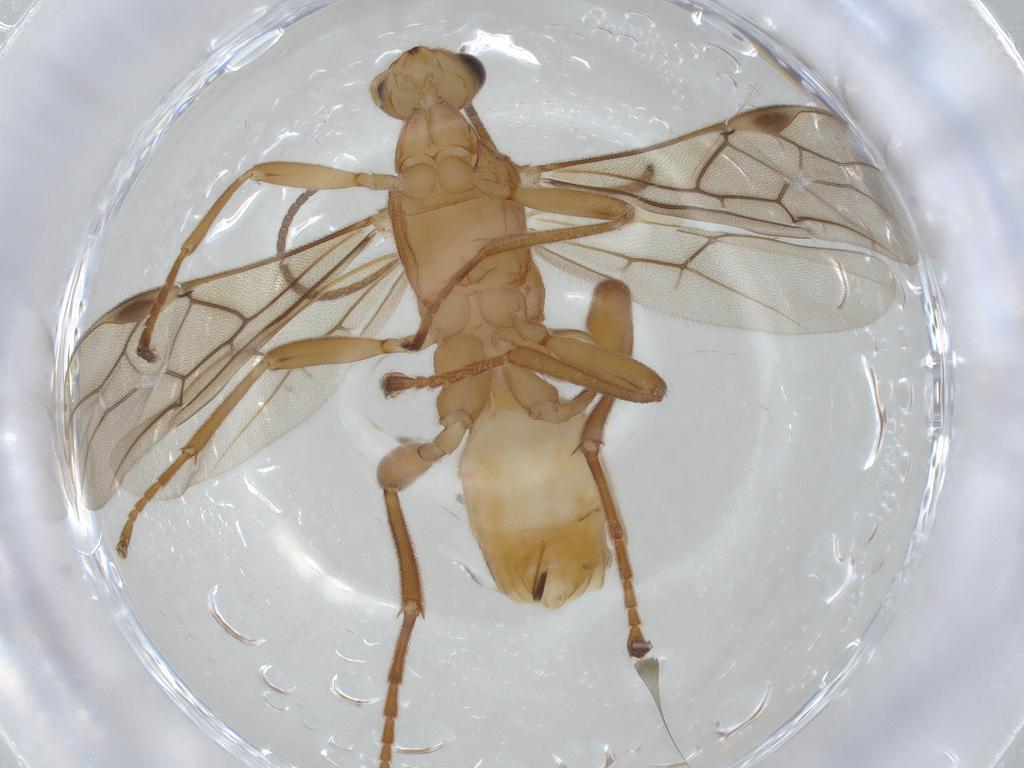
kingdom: Animalia
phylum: Arthropoda
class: Insecta
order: Hymenoptera
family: Braconidae
